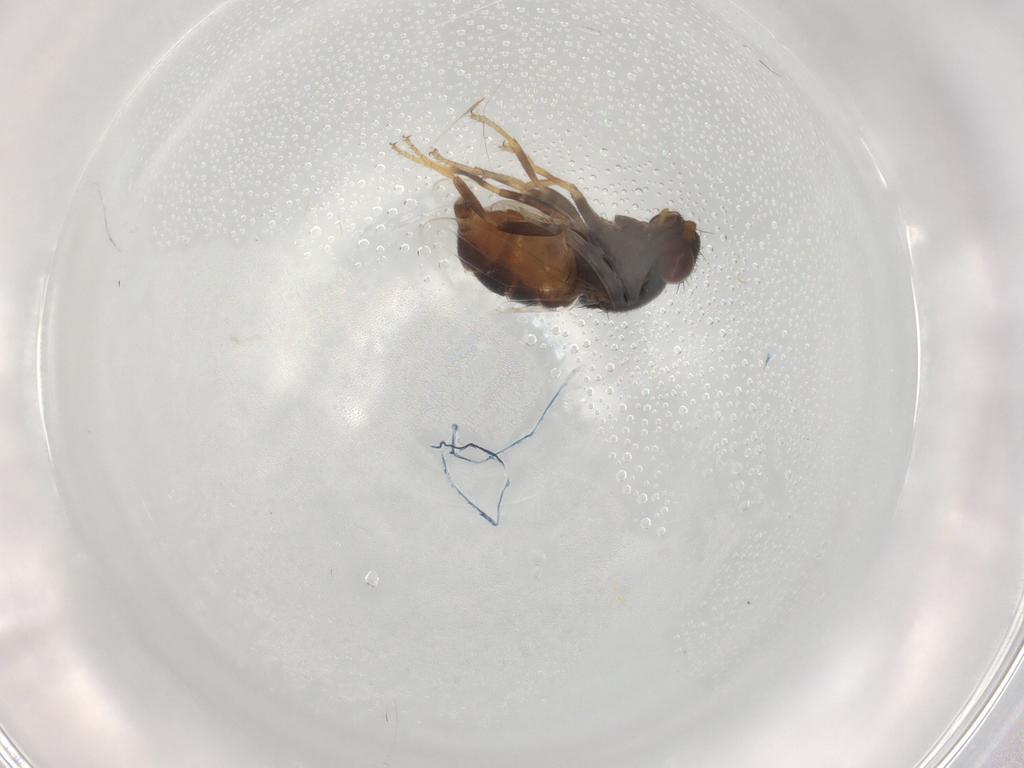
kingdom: Animalia
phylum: Arthropoda
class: Insecta
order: Diptera
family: Chloropidae
